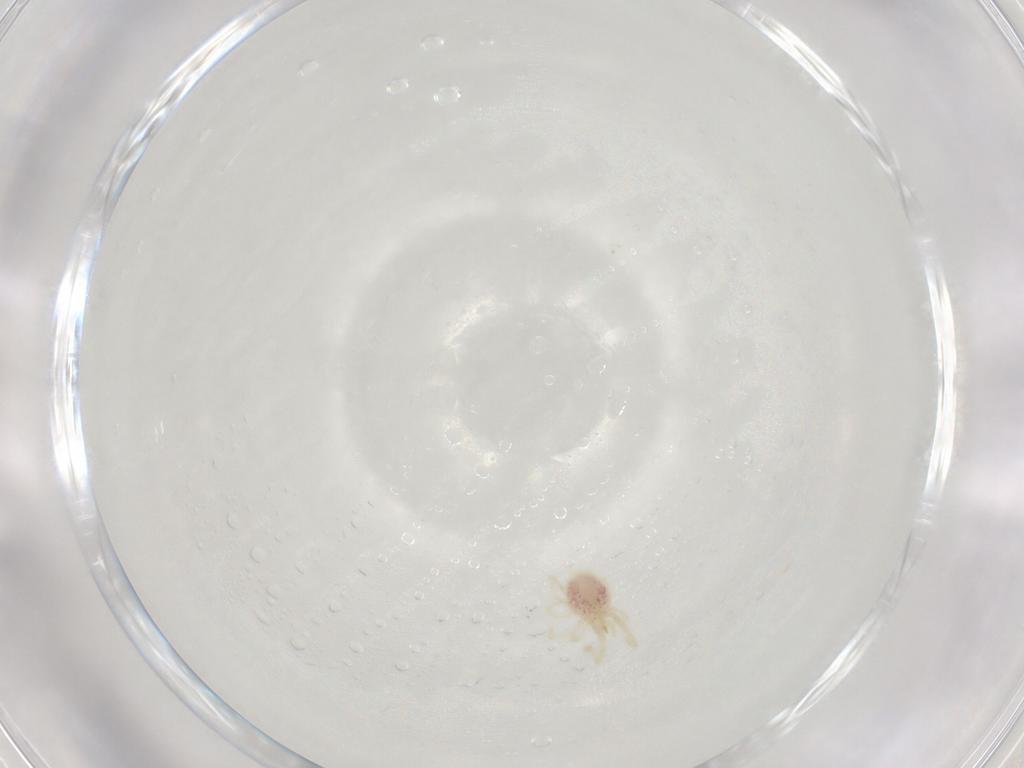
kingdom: Animalia
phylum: Arthropoda
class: Arachnida
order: Trombidiformes
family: Erythraeidae
